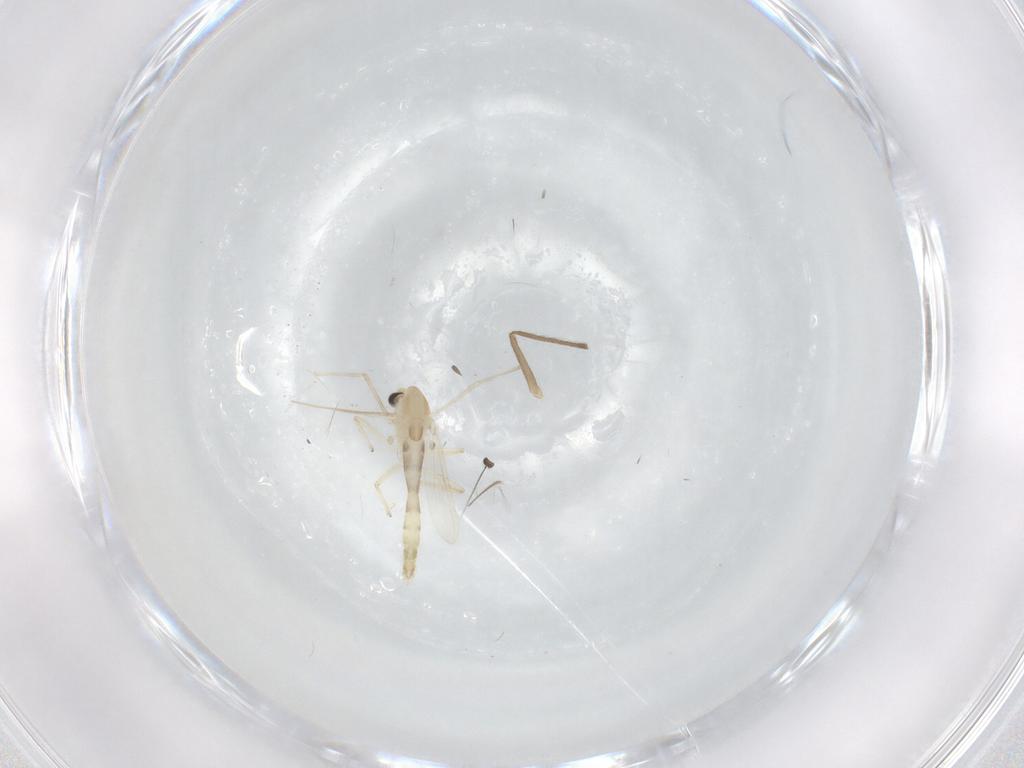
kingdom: Animalia
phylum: Arthropoda
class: Insecta
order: Diptera
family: Chironomidae
